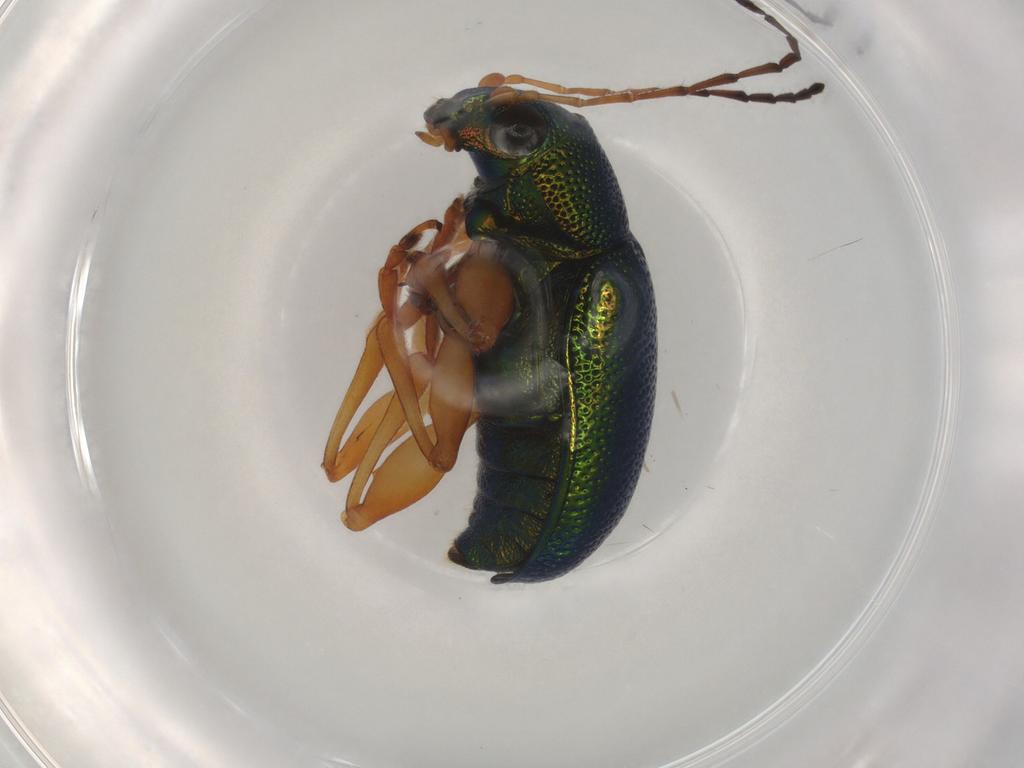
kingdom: Animalia
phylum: Arthropoda
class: Insecta
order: Coleoptera
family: Chrysomelidae
